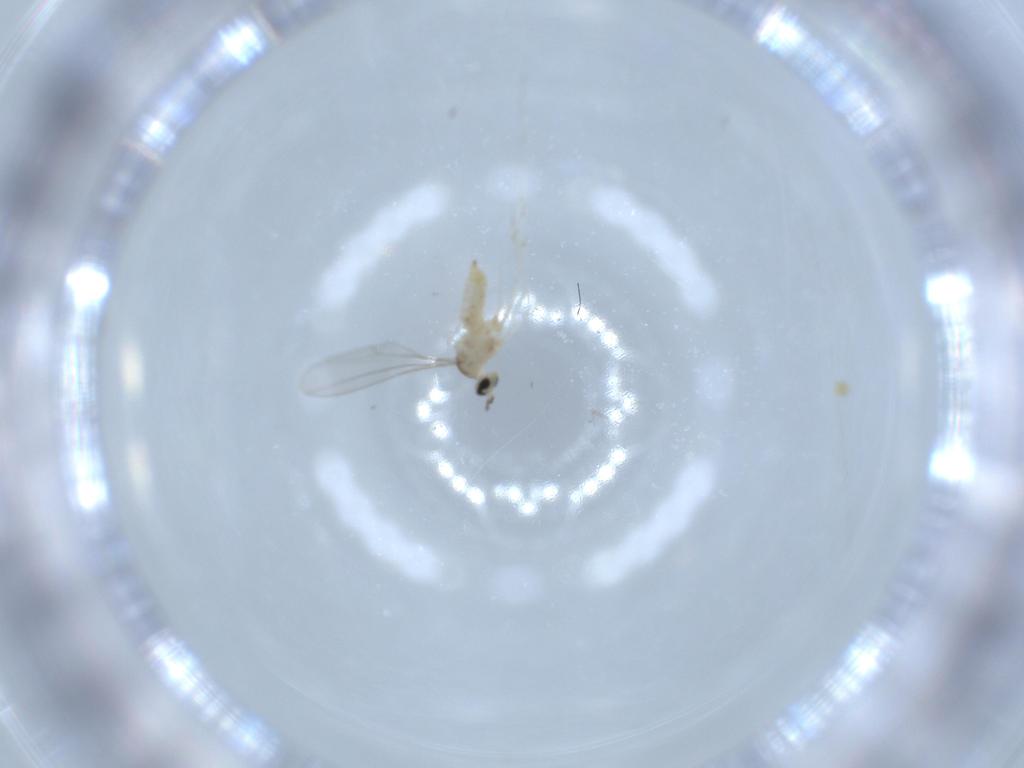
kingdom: Animalia
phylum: Arthropoda
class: Insecta
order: Diptera
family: Cecidomyiidae
